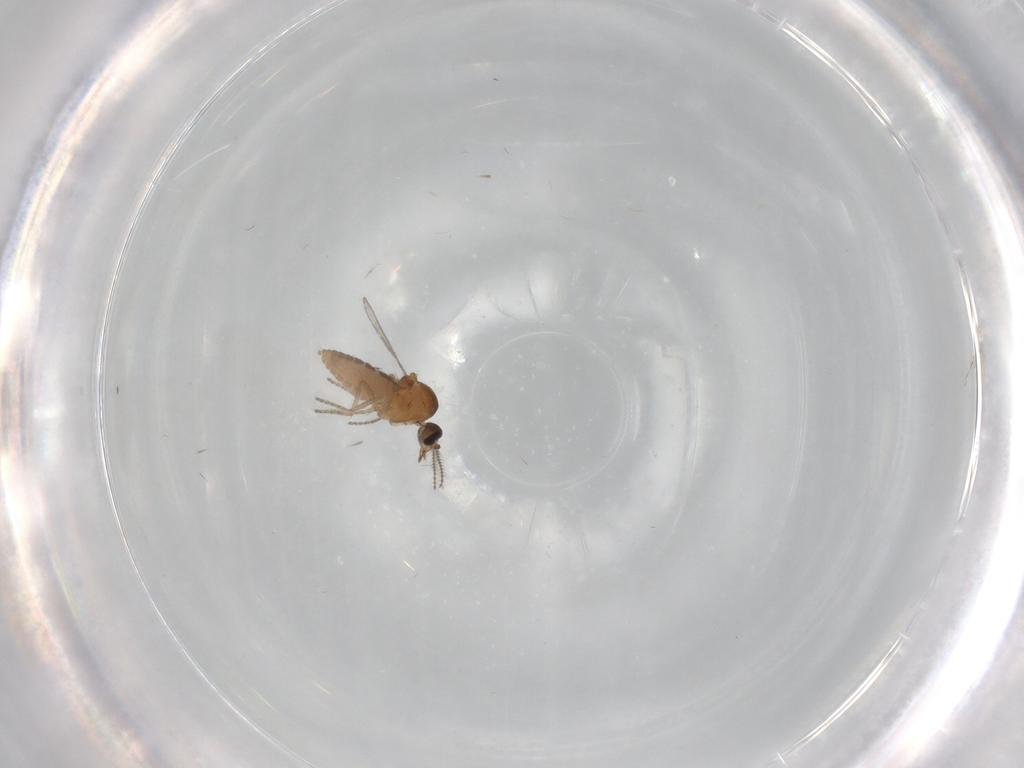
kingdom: Animalia
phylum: Arthropoda
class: Insecta
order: Diptera
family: Ceratopogonidae
